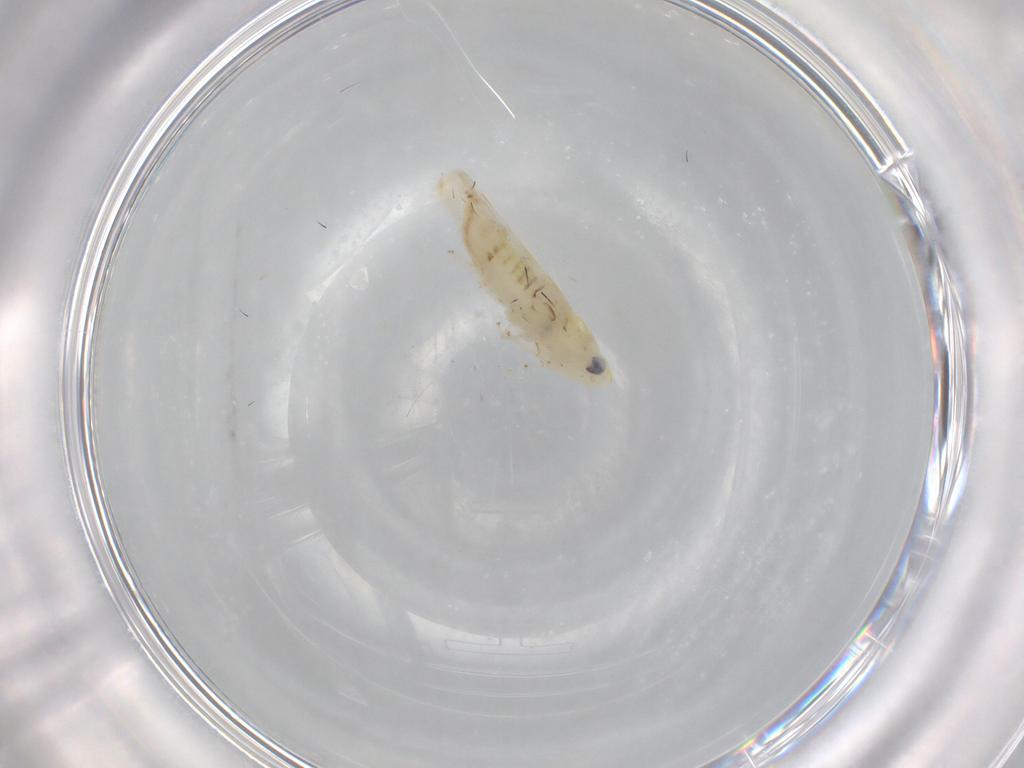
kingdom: Animalia
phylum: Arthropoda
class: Insecta
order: Hemiptera
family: Cicadellidae
